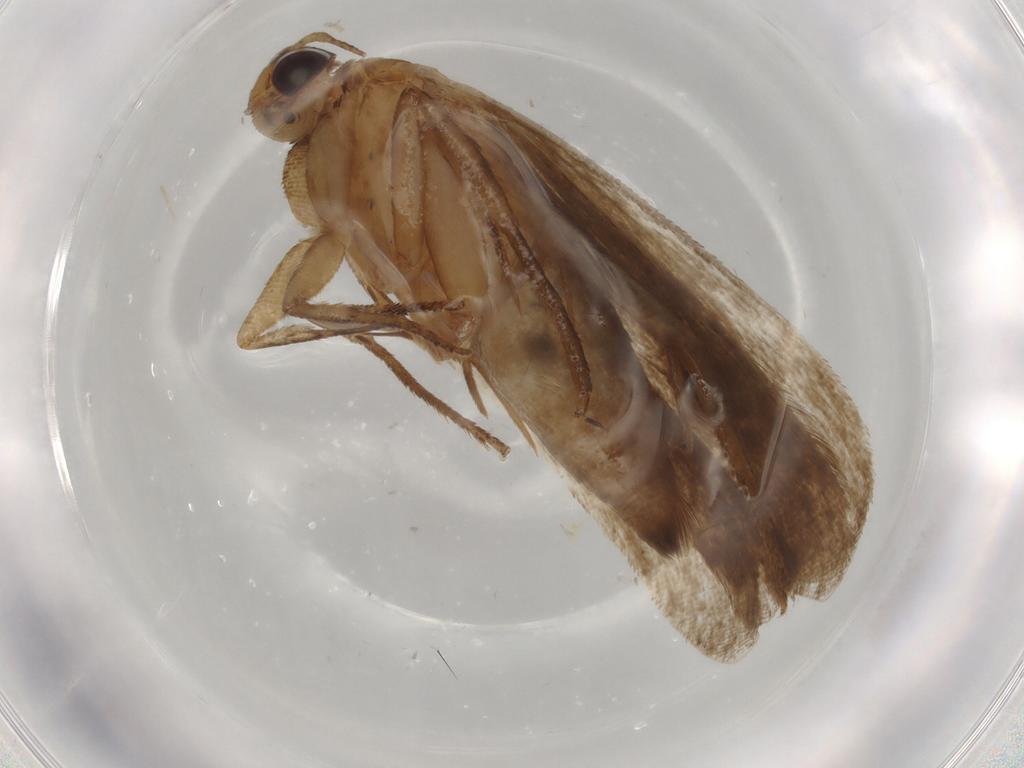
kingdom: Animalia
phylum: Arthropoda
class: Insecta
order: Lepidoptera
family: Gelechiidae
